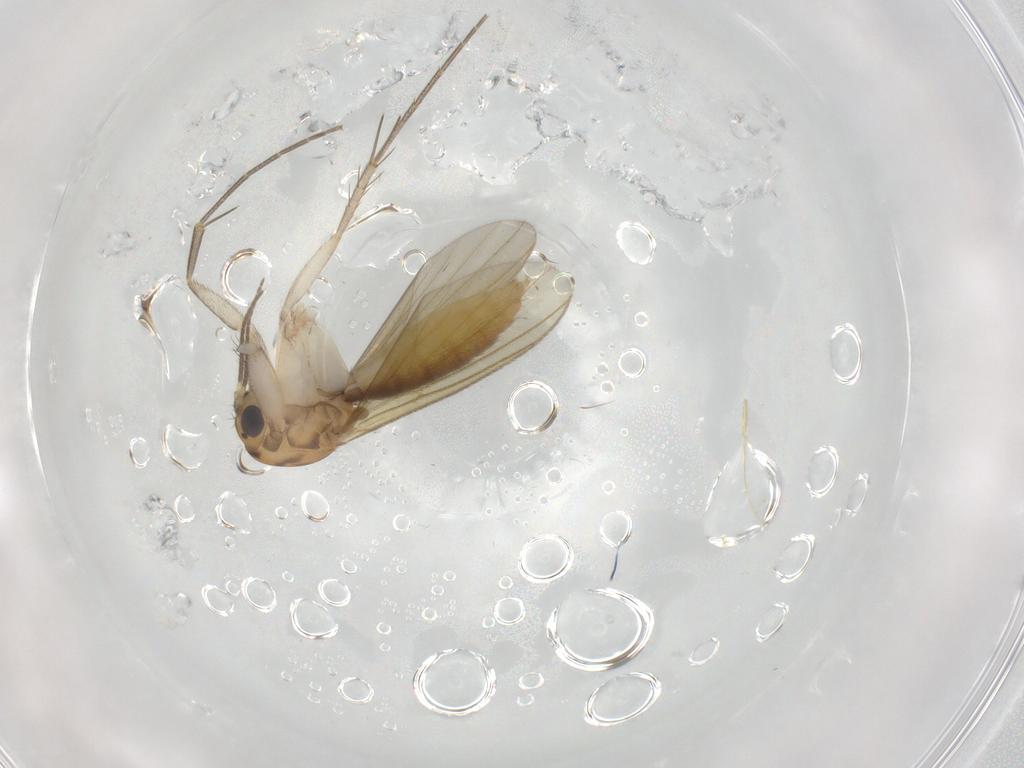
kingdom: Animalia
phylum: Arthropoda
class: Insecta
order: Diptera
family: Mycetophilidae
